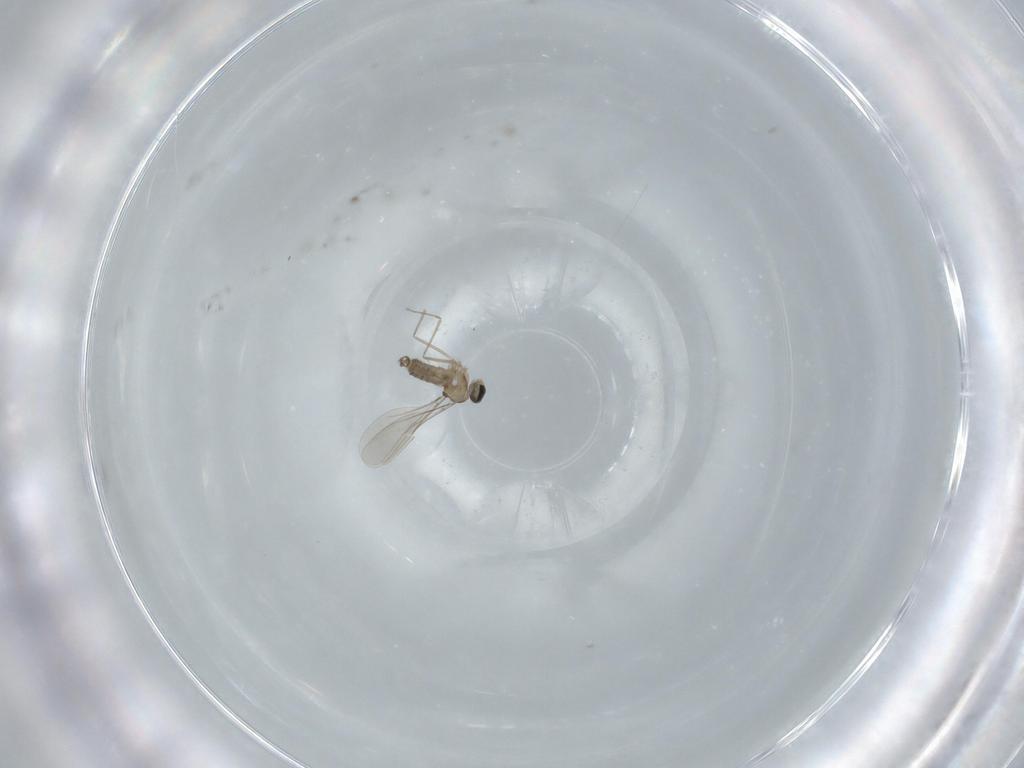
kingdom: Animalia
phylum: Arthropoda
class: Insecta
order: Diptera
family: Cecidomyiidae
